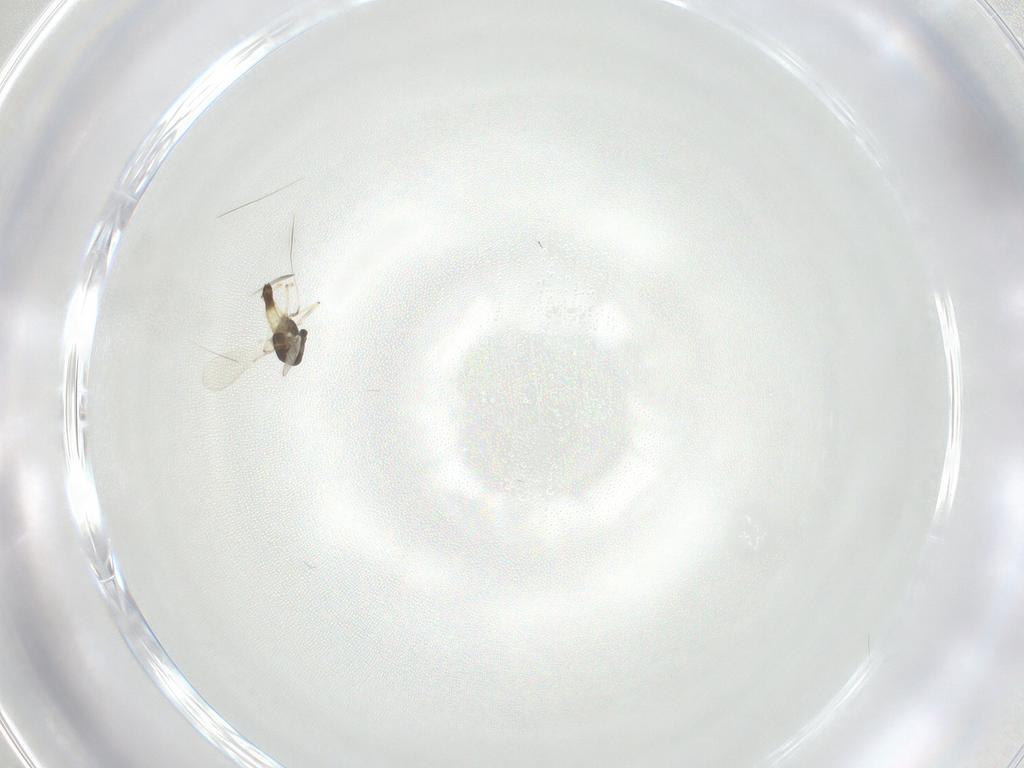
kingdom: Animalia
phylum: Arthropoda
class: Insecta
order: Diptera
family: Chironomidae
